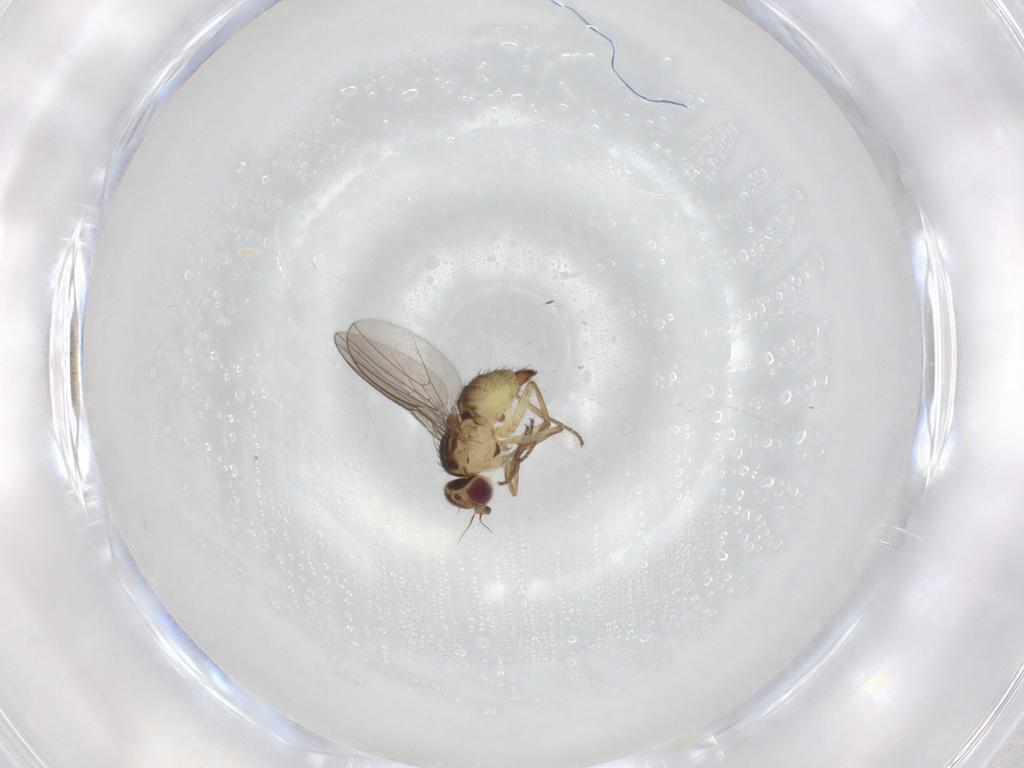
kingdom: Animalia
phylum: Arthropoda
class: Insecta
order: Diptera
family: Agromyzidae
